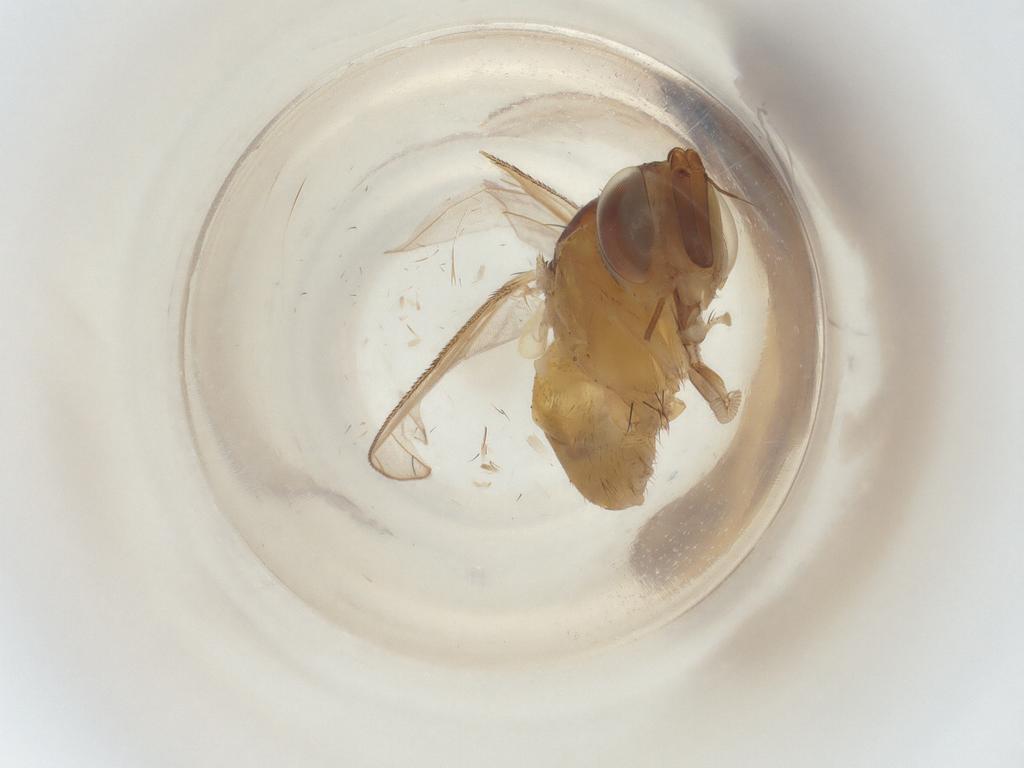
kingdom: Animalia
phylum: Arthropoda
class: Insecta
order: Diptera
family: Muscidae
